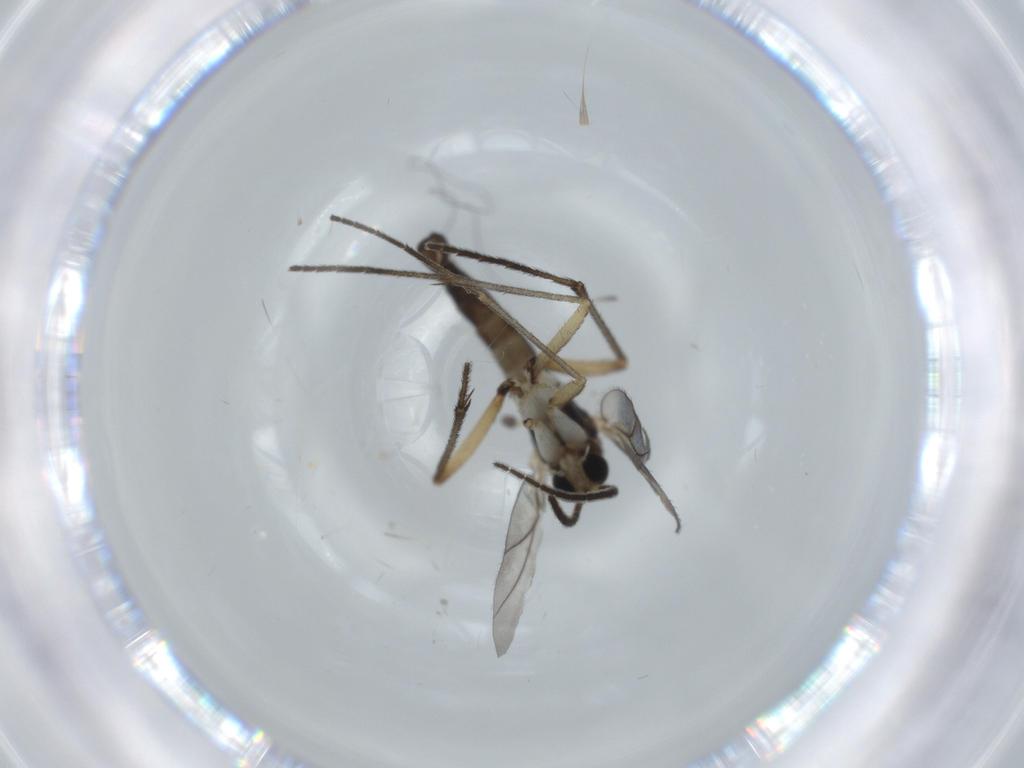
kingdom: Animalia
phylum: Arthropoda
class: Insecta
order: Diptera
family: Sciaridae
